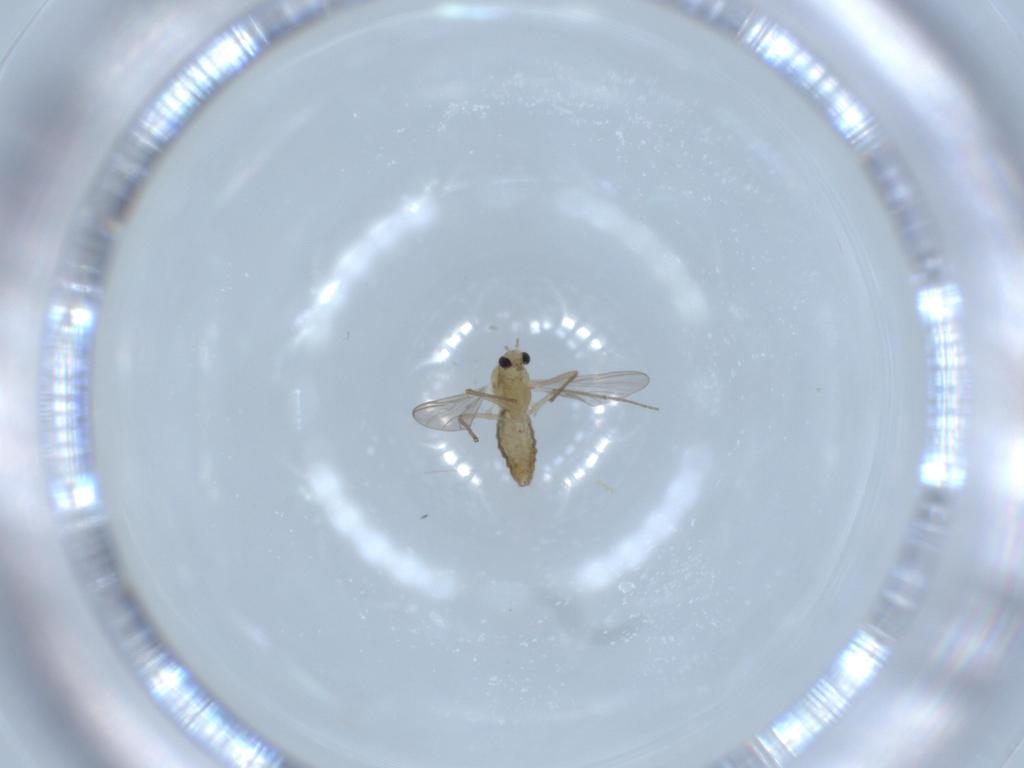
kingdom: Animalia
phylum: Arthropoda
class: Insecta
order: Diptera
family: Chironomidae
